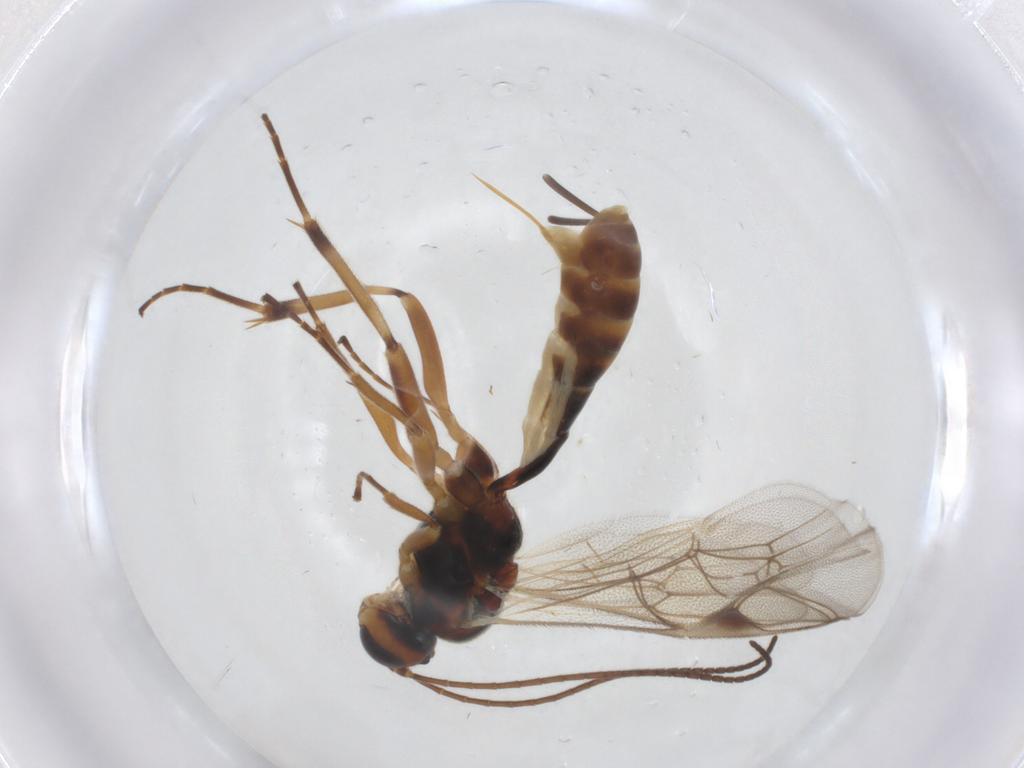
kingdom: Animalia
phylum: Arthropoda
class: Insecta
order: Hymenoptera
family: Ichneumonidae
